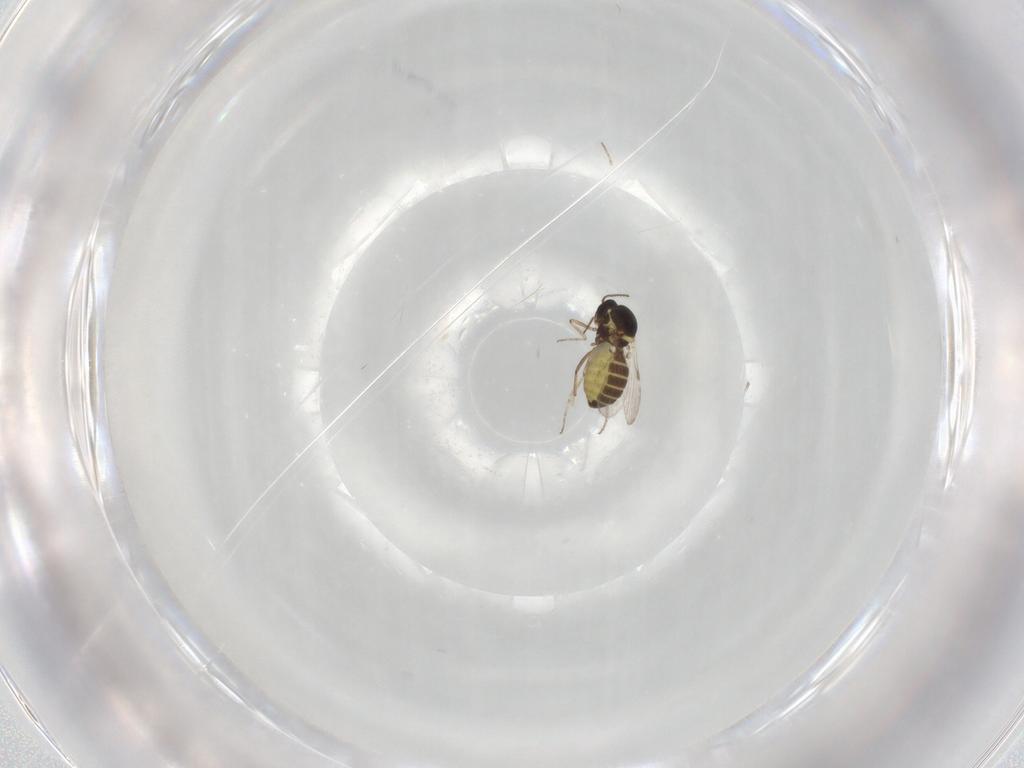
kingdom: Animalia
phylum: Arthropoda
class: Insecta
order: Diptera
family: Ceratopogonidae
